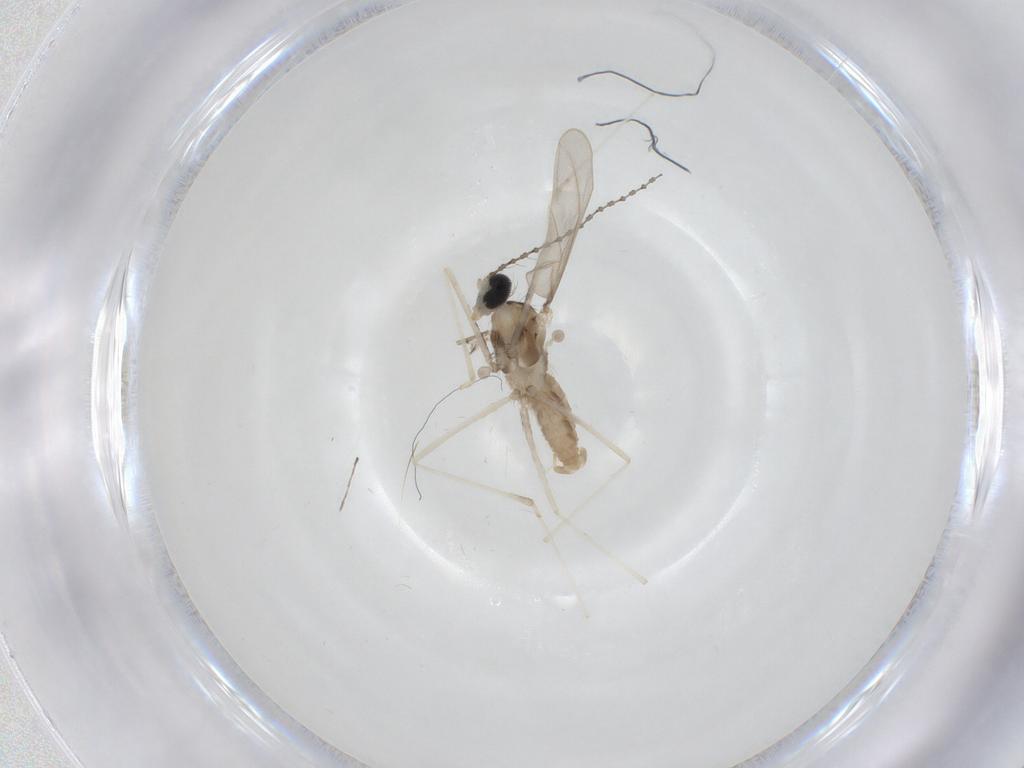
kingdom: Animalia
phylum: Arthropoda
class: Insecta
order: Diptera
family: Cecidomyiidae
